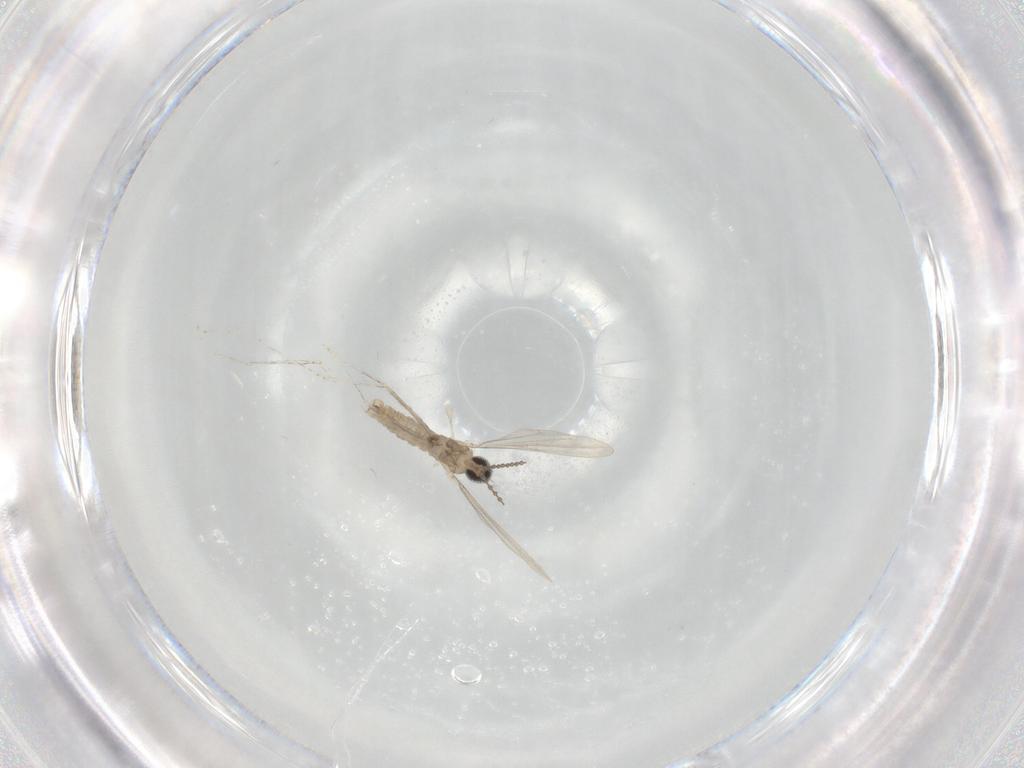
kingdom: Animalia
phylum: Arthropoda
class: Insecta
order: Diptera
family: Cecidomyiidae
